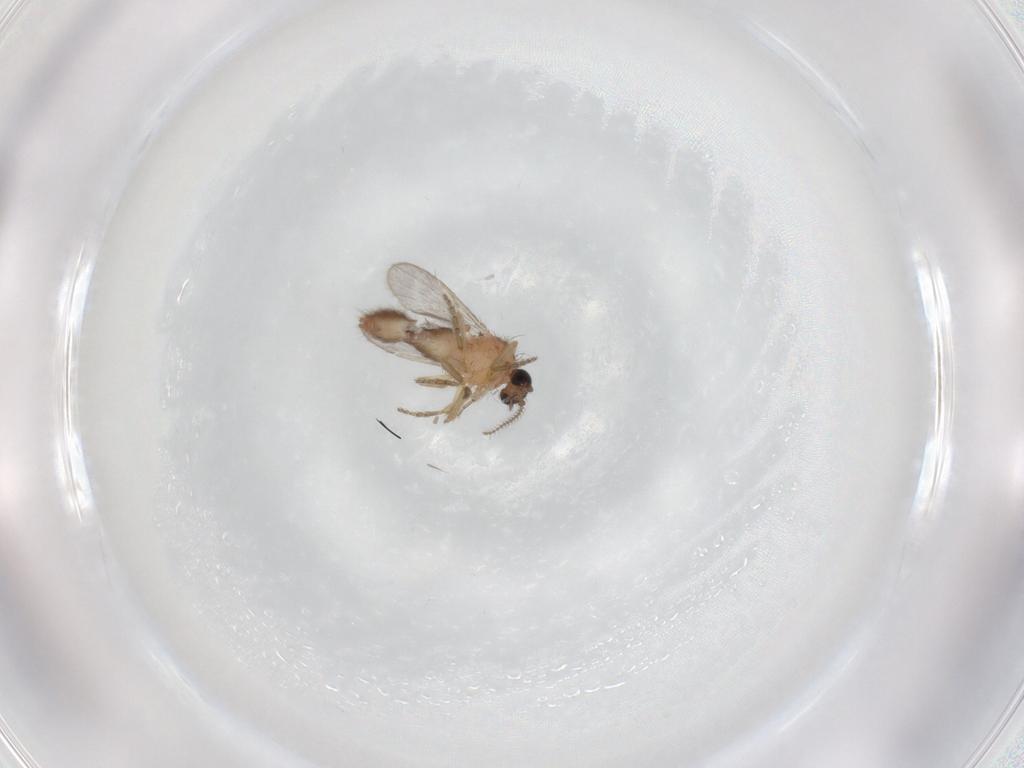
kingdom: Animalia
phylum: Arthropoda
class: Insecta
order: Diptera
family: Ceratopogonidae
